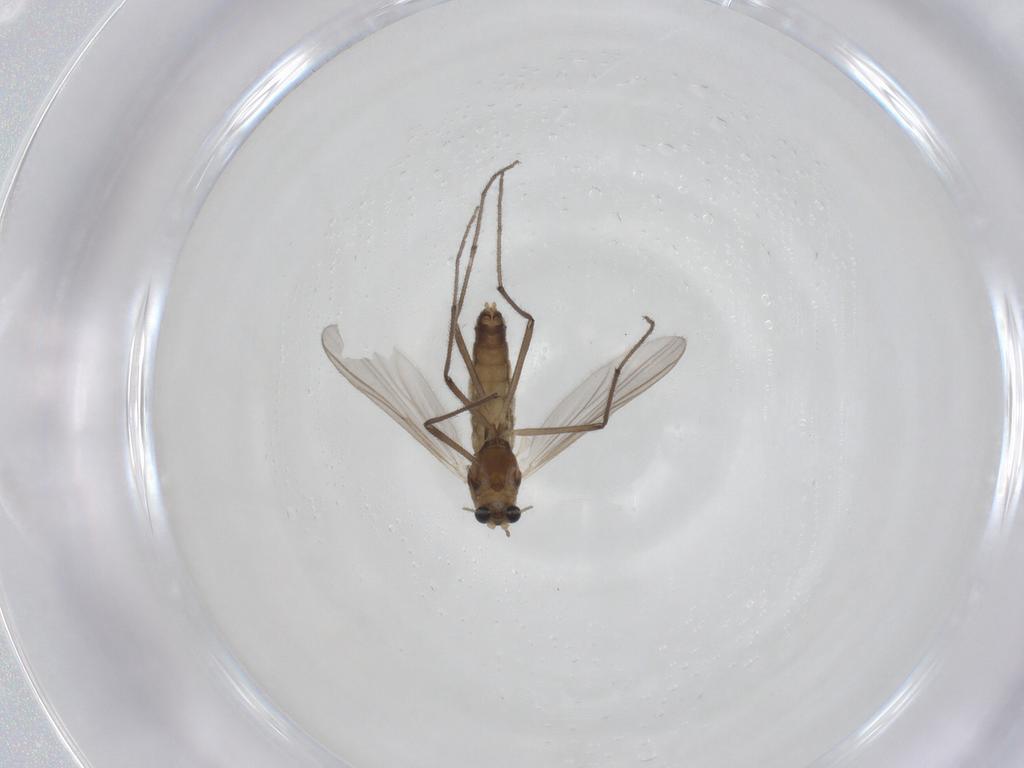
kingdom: Animalia
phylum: Arthropoda
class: Insecta
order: Diptera
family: Chironomidae
